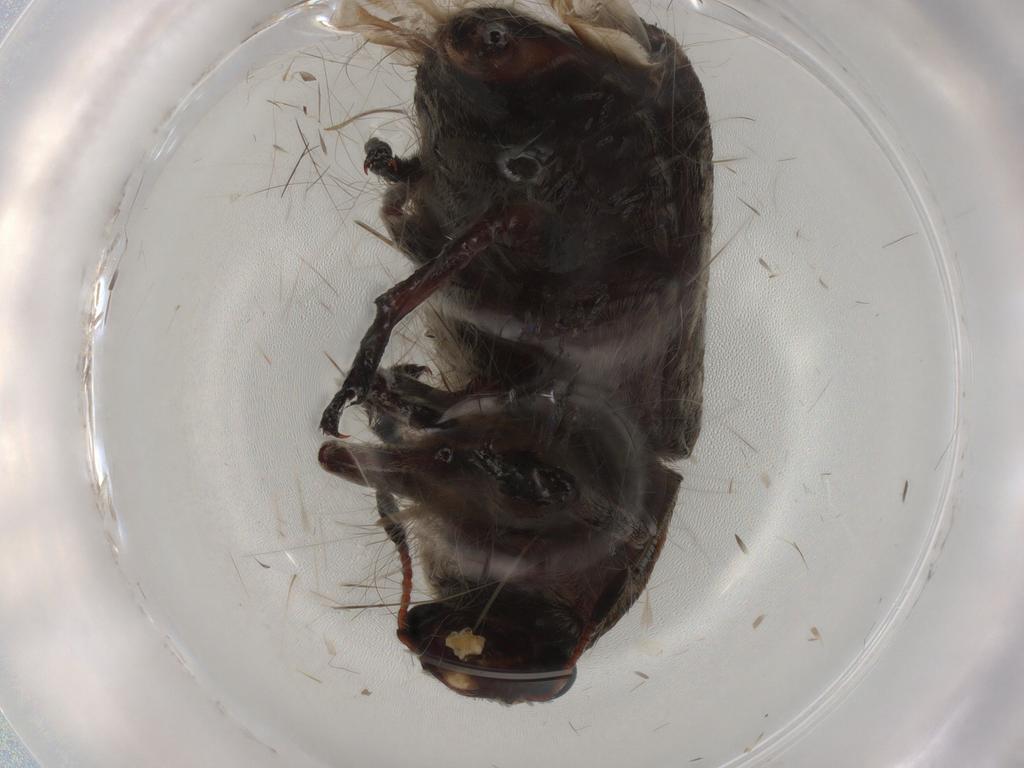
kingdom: Animalia
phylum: Arthropoda
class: Insecta
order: Coleoptera
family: Anthribidae
